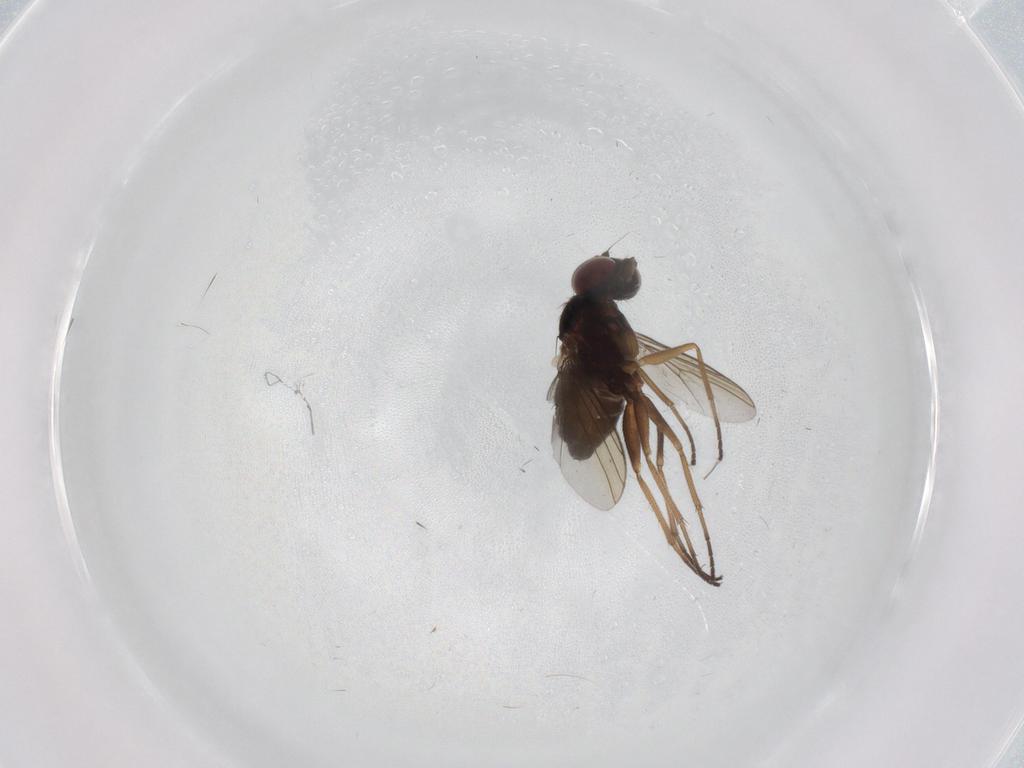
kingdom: Animalia
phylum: Arthropoda
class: Insecta
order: Diptera
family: Dolichopodidae
